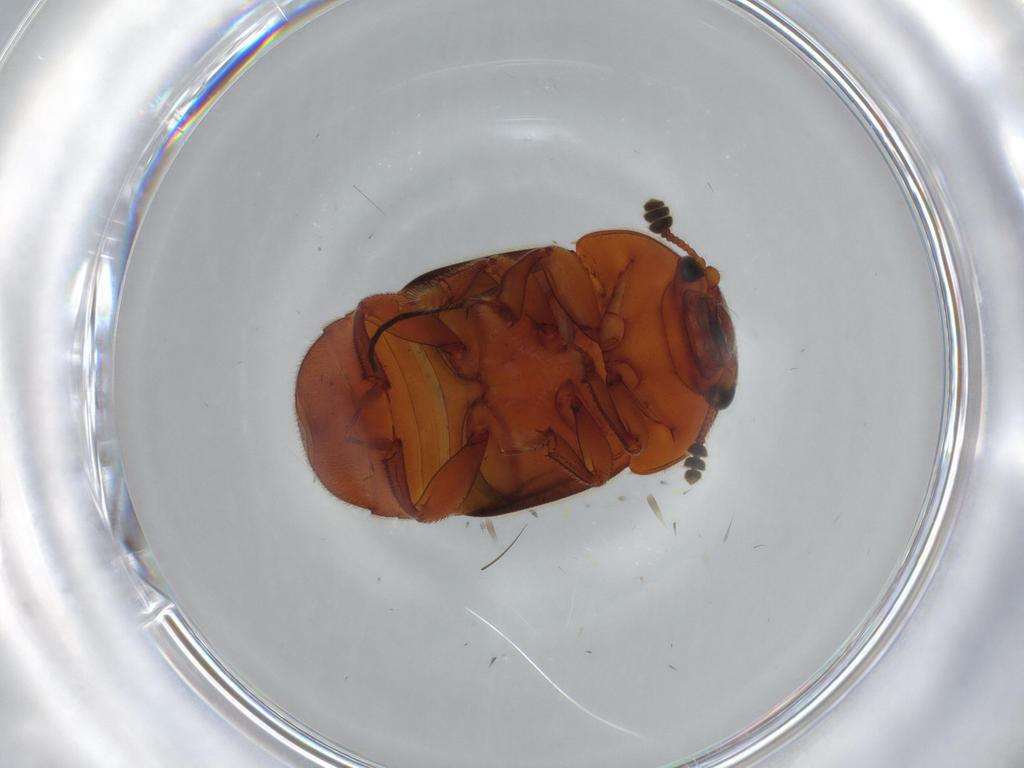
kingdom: Animalia
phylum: Arthropoda
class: Insecta
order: Coleoptera
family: Nitidulidae
